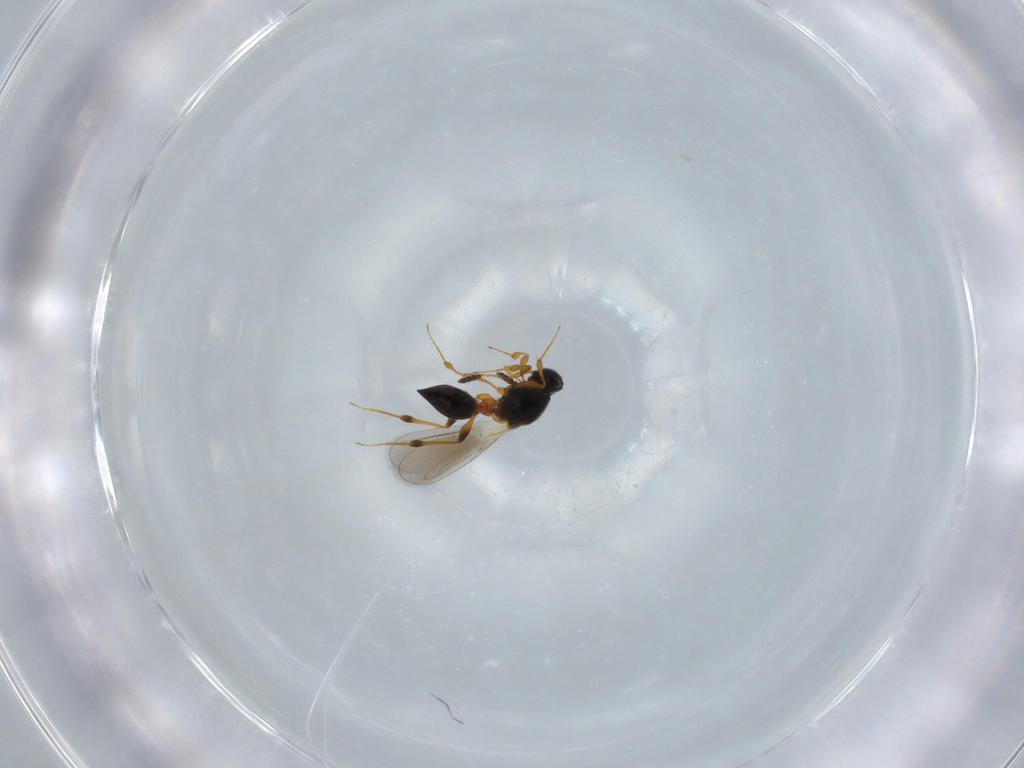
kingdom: Animalia
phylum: Arthropoda
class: Insecta
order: Hymenoptera
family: Platygastridae
